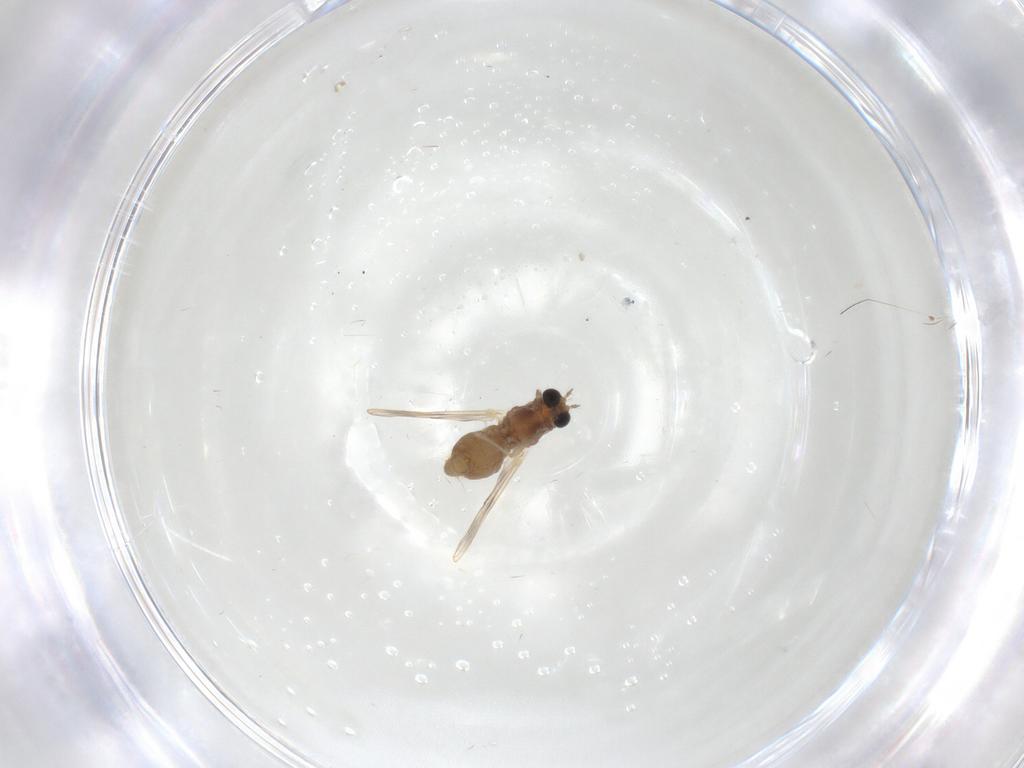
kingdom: Animalia
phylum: Arthropoda
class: Insecta
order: Diptera
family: Chironomidae
